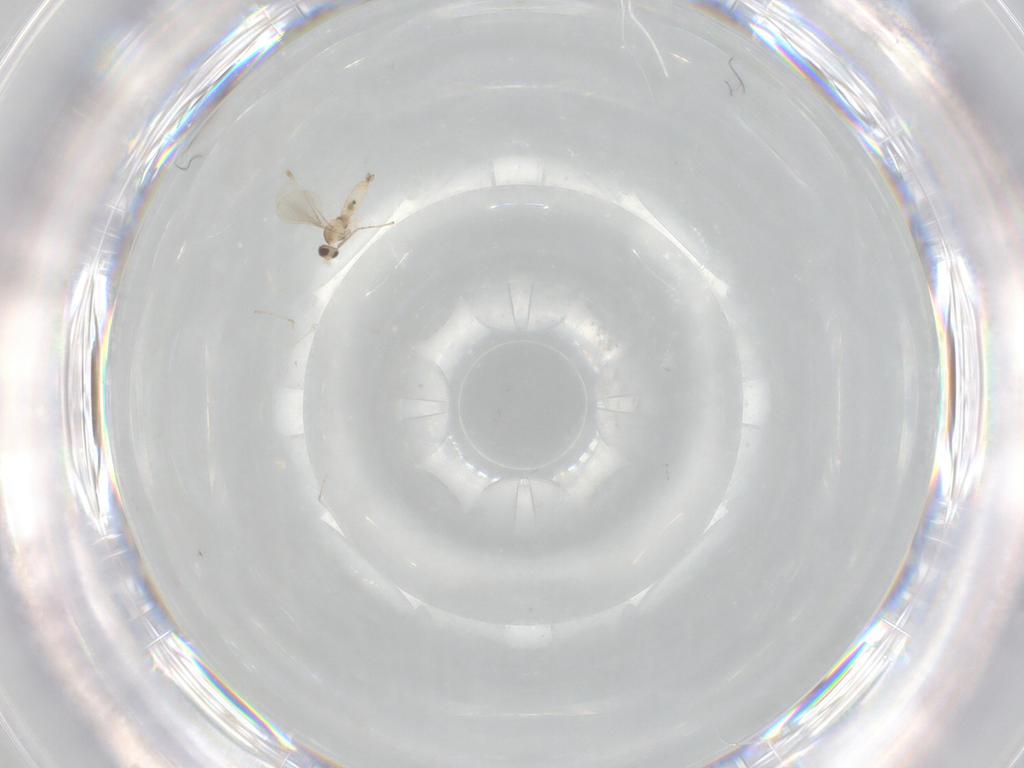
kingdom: Animalia
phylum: Arthropoda
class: Insecta
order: Diptera
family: Cecidomyiidae
